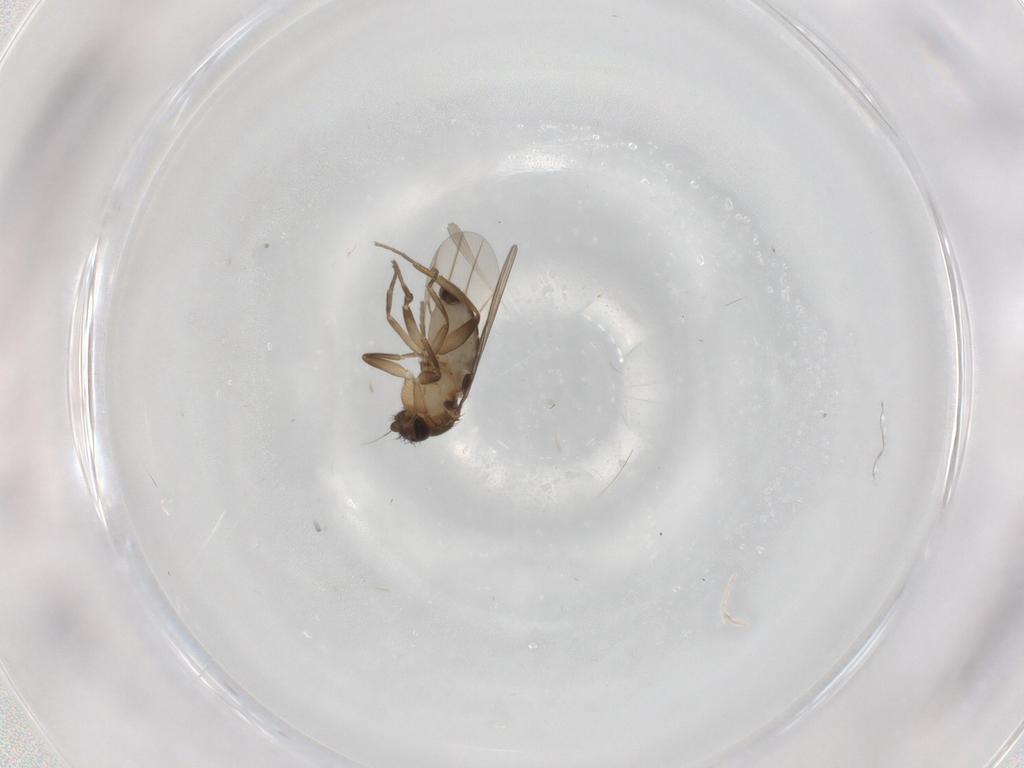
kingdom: Animalia
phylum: Arthropoda
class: Insecta
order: Diptera
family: Phoridae
